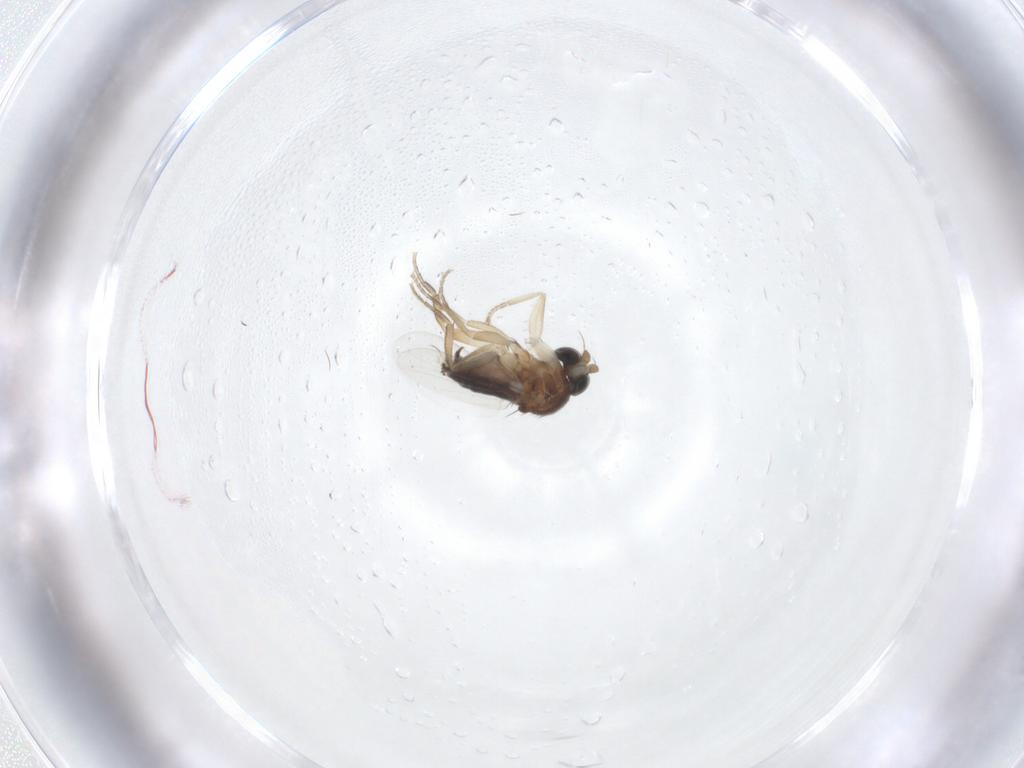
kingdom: Animalia
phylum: Arthropoda
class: Insecta
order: Diptera
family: Phoridae
